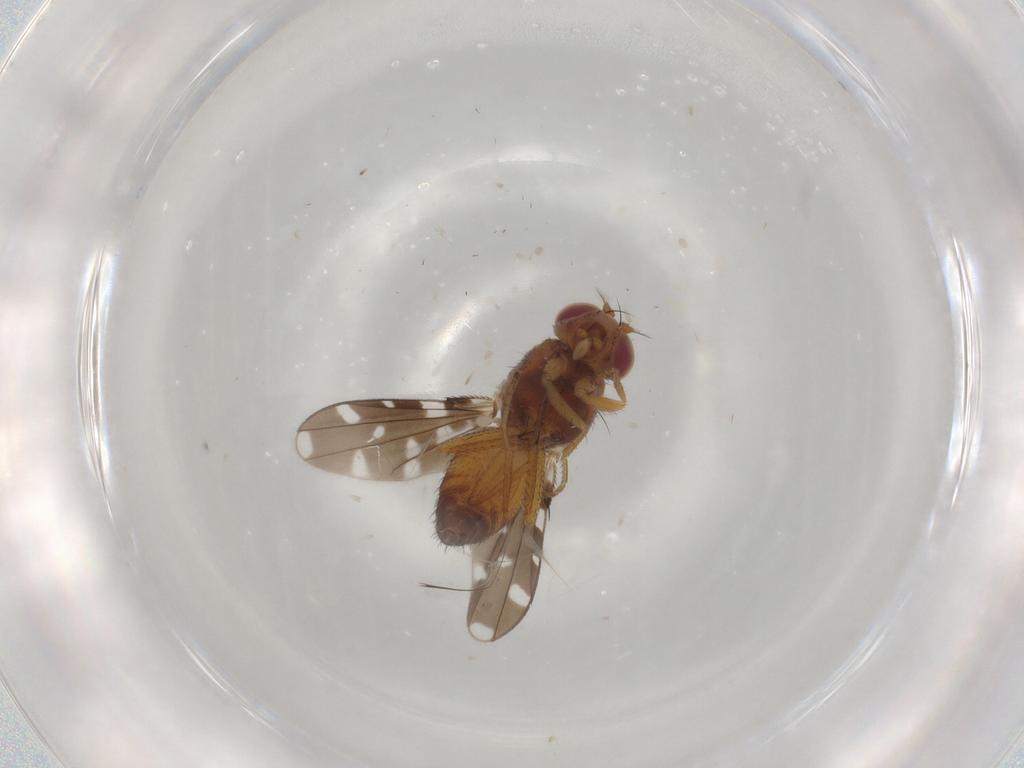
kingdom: Animalia
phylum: Arthropoda
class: Insecta
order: Diptera
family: Ephydridae
